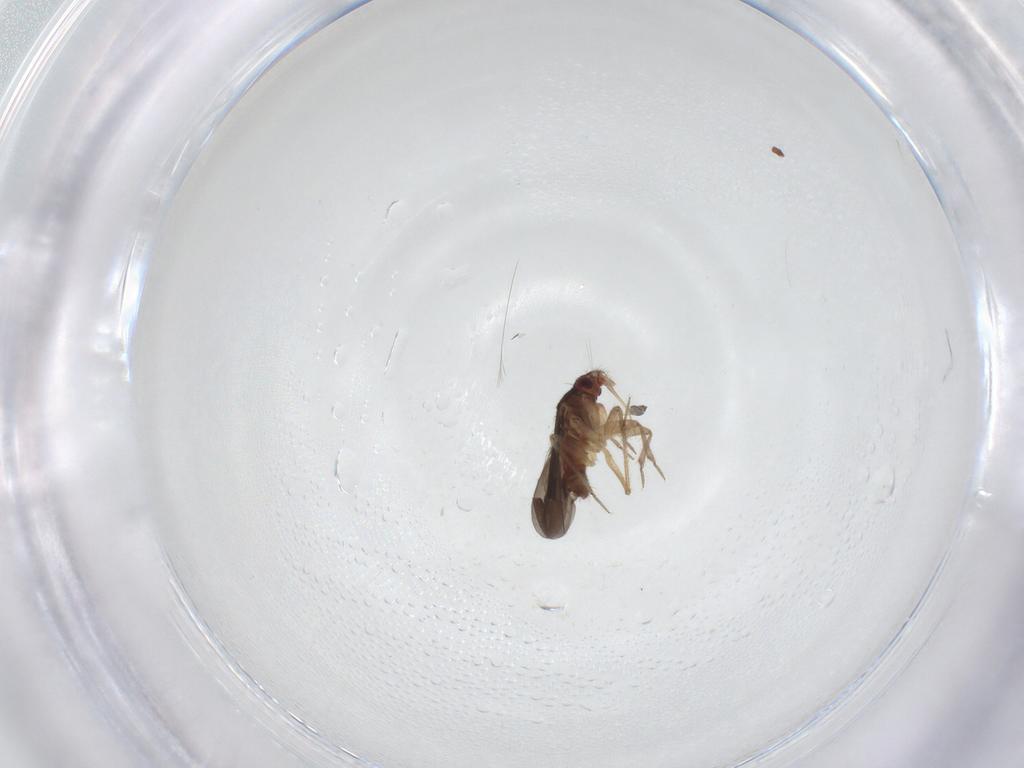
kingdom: Animalia
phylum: Arthropoda
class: Insecta
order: Hemiptera
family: Ceratocombidae
